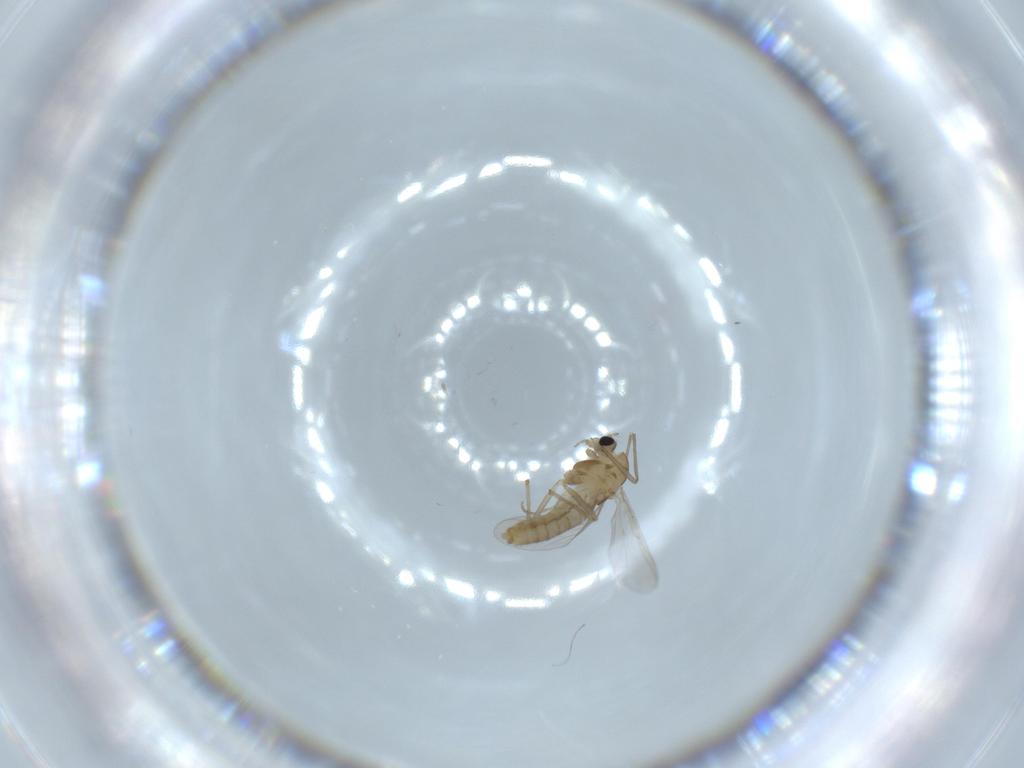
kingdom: Animalia
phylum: Arthropoda
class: Insecta
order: Diptera
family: Chironomidae
